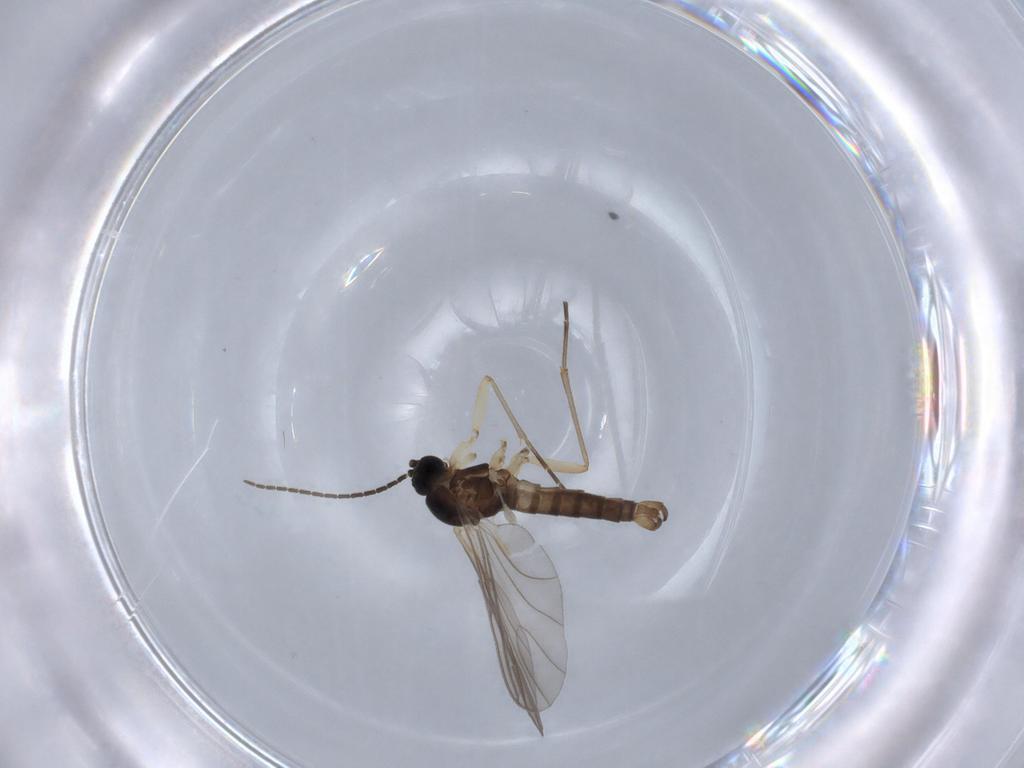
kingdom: Animalia
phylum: Arthropoda
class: Insecta
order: Diptera
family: Sciaridae
